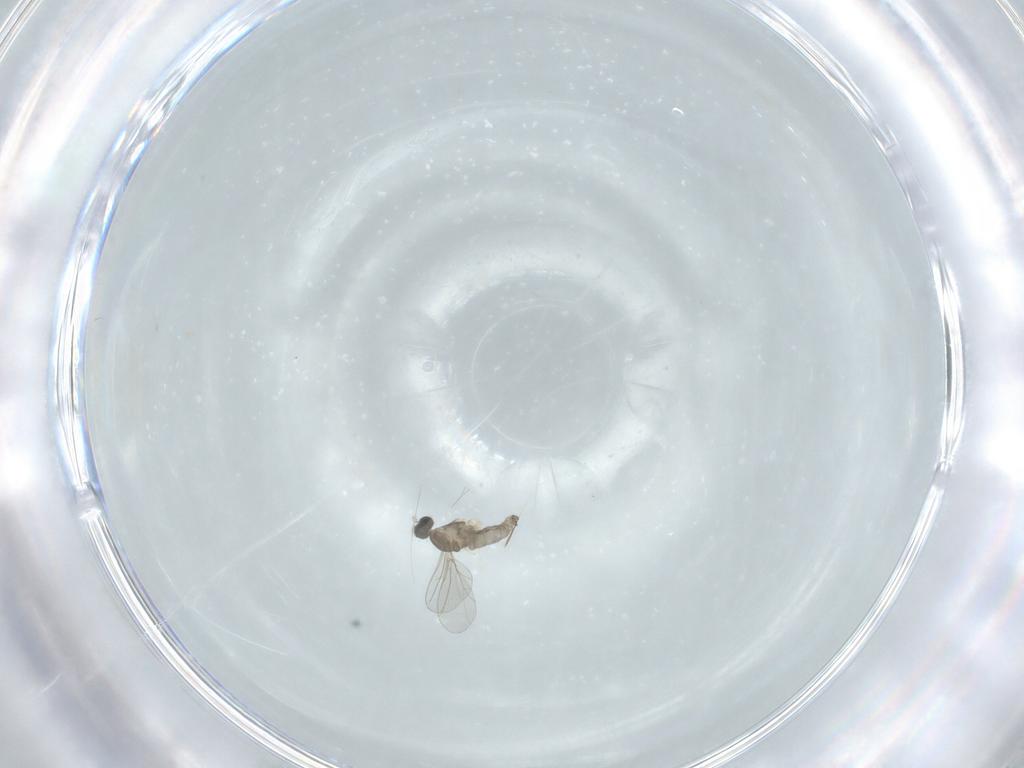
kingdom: Animalia
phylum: Arthropoda
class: Insecta
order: Diptera
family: Cecidomyiidae
